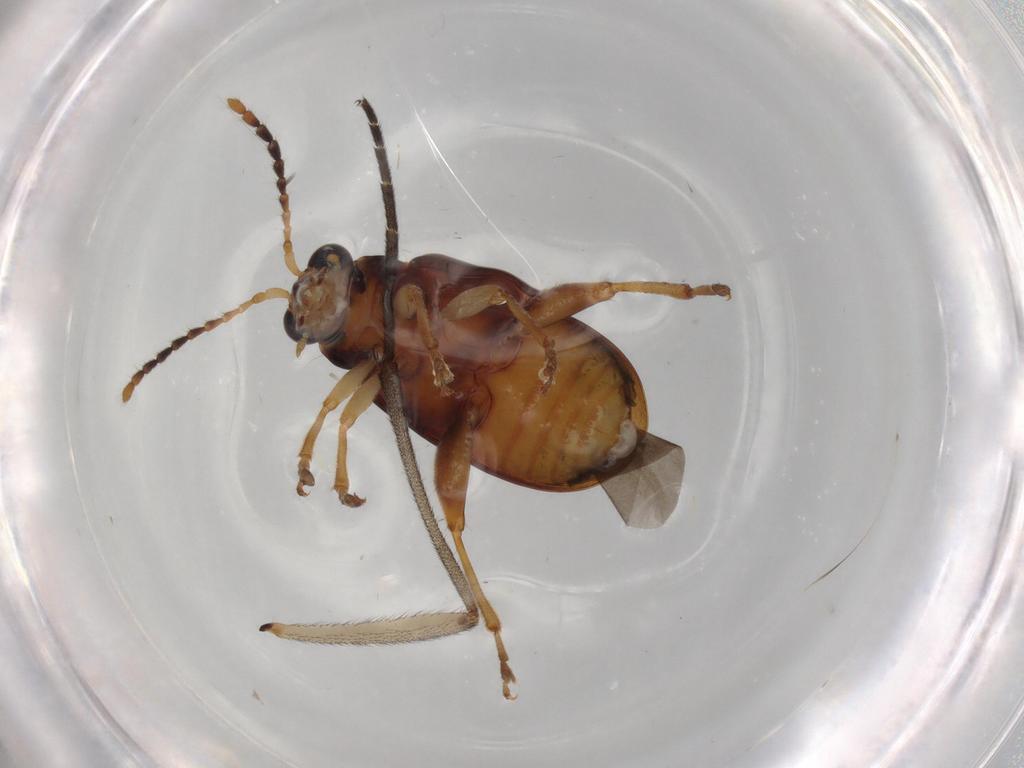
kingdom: Animalia
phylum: Arthropoda
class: Insecta
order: Coleoptera
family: Chrysomelidae
